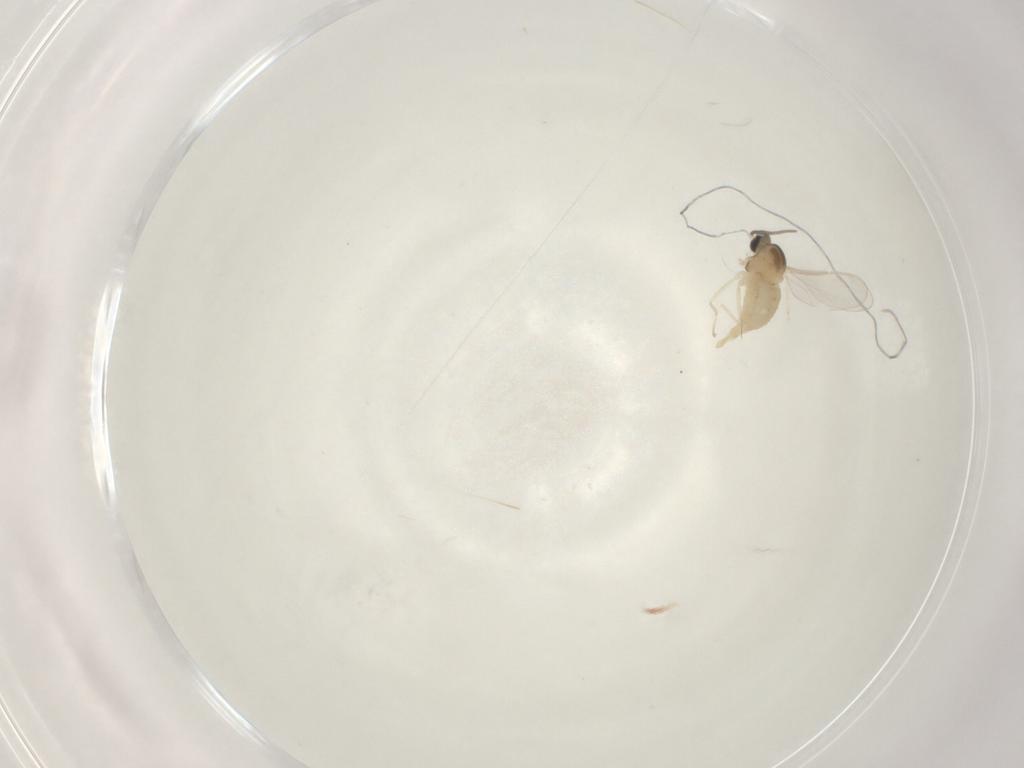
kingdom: Animalia
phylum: Arthropoda
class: Insecta
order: Diptera
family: Cecidomyiidae
